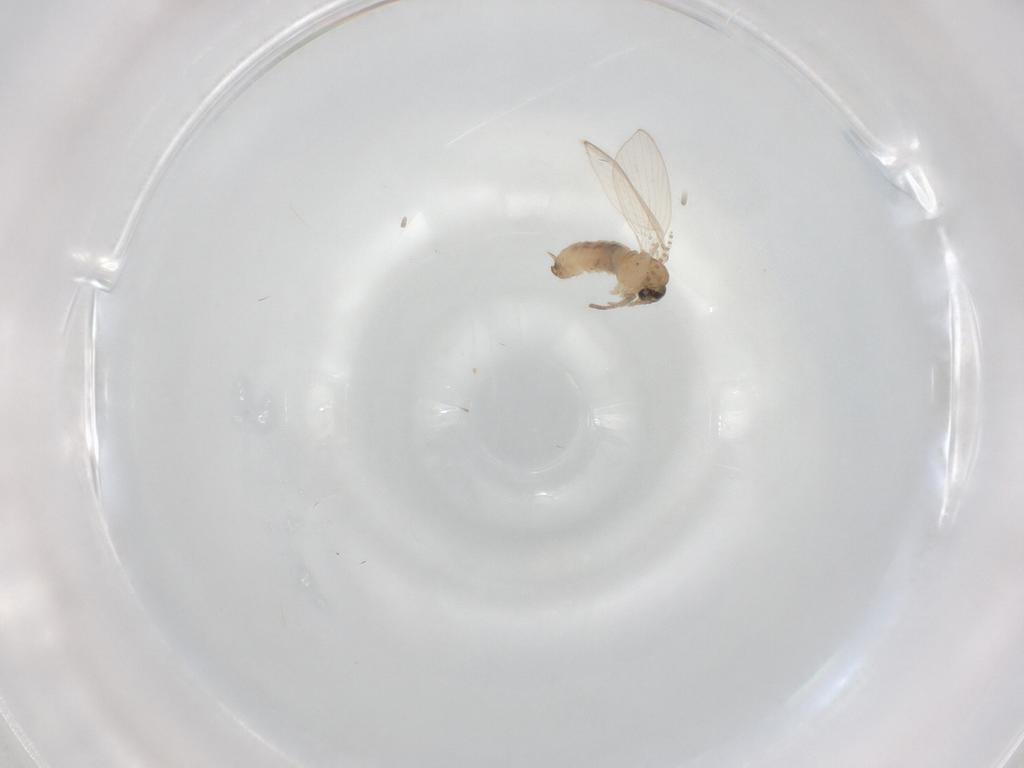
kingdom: Animalia
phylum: Arthropoda
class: Insecta
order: Diptera
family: Psychodidae
